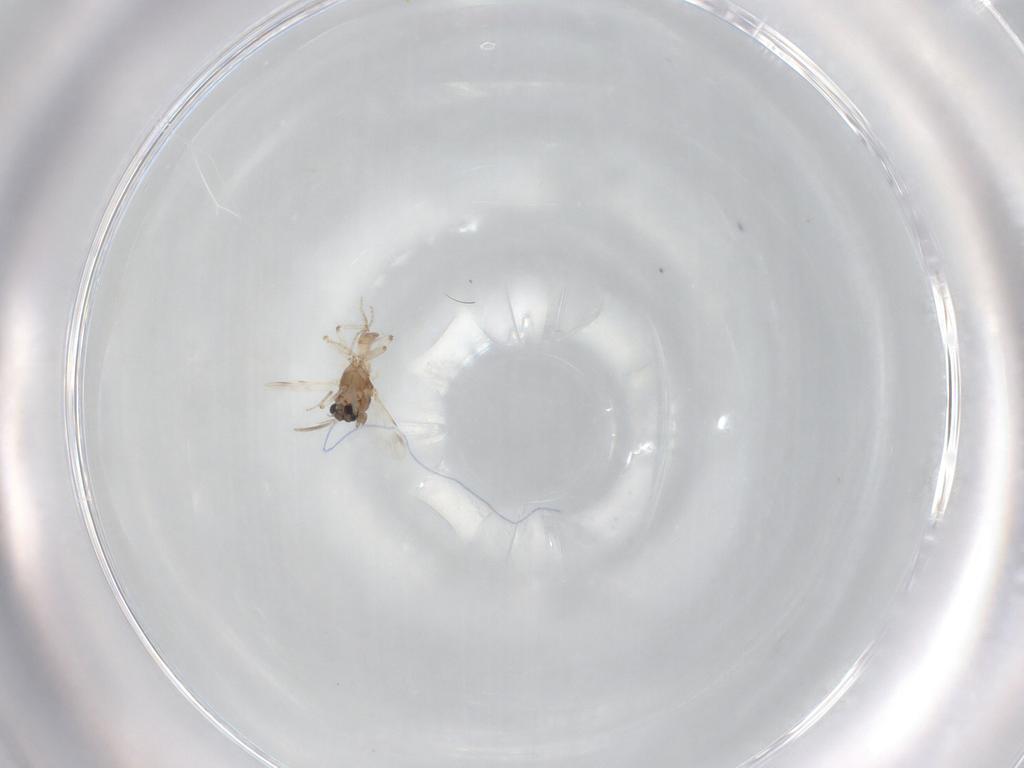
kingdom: Animalia
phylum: Arthropoda
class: Insecta
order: Diptera
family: Ceratopogonidae
